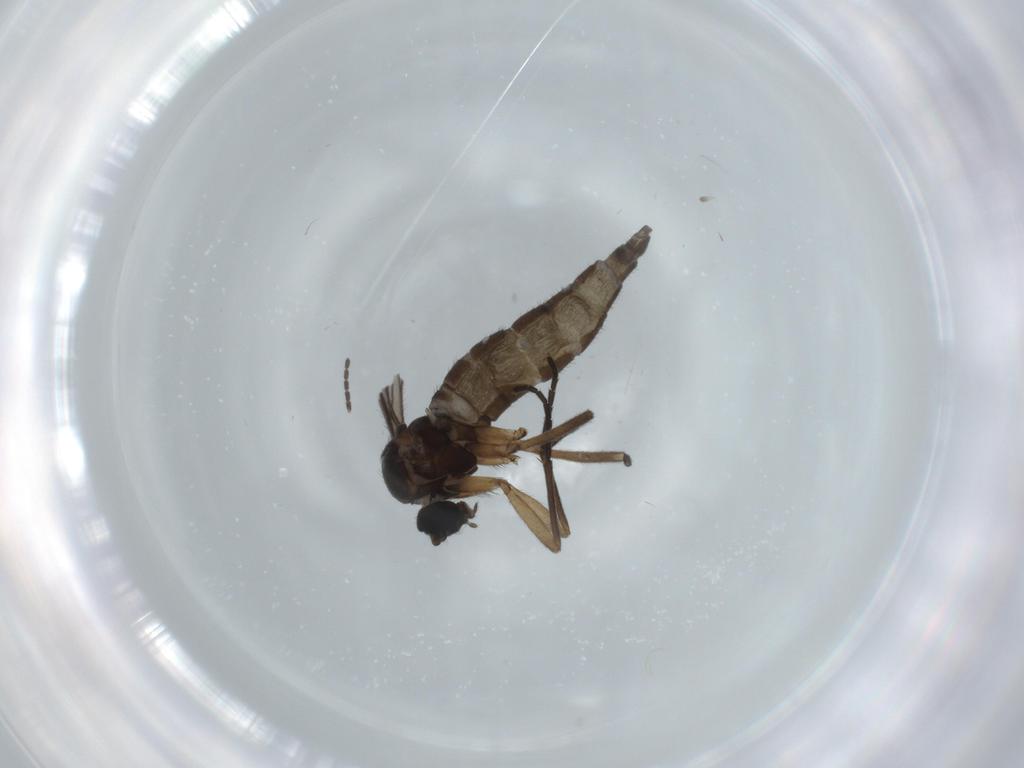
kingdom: Animalia
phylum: Arthropoda
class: Insecta
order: Diptera
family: Sciaridae
